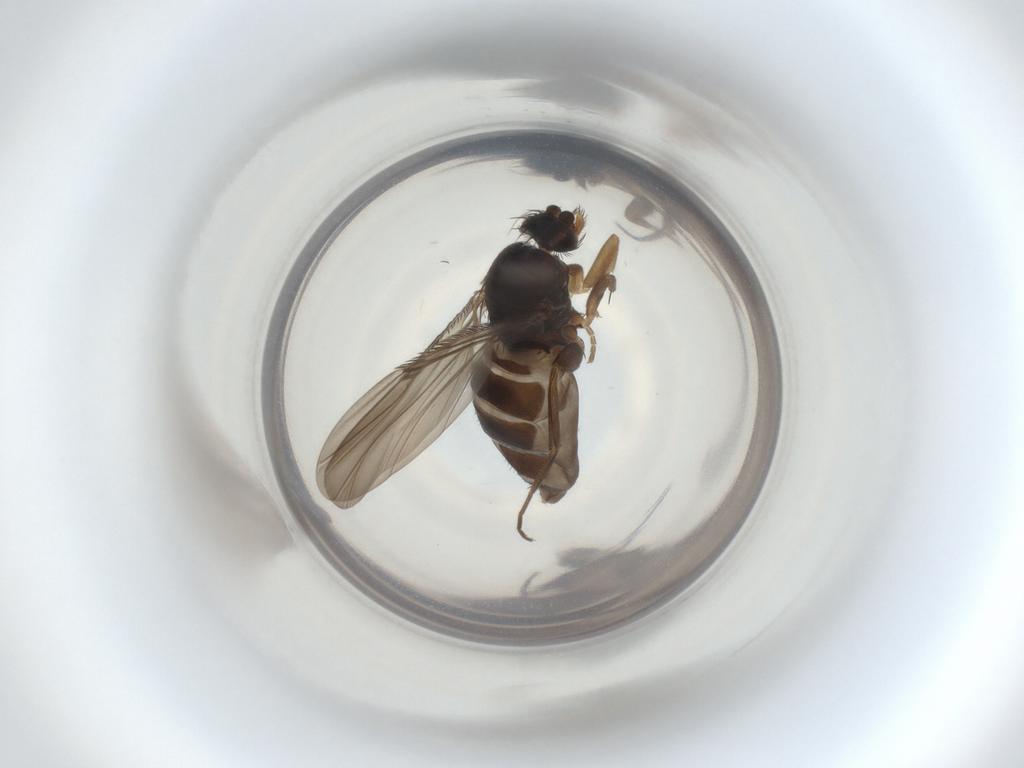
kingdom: Animalia
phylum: Arthropoda
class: Insecta
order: Diptera
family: Phoridae
